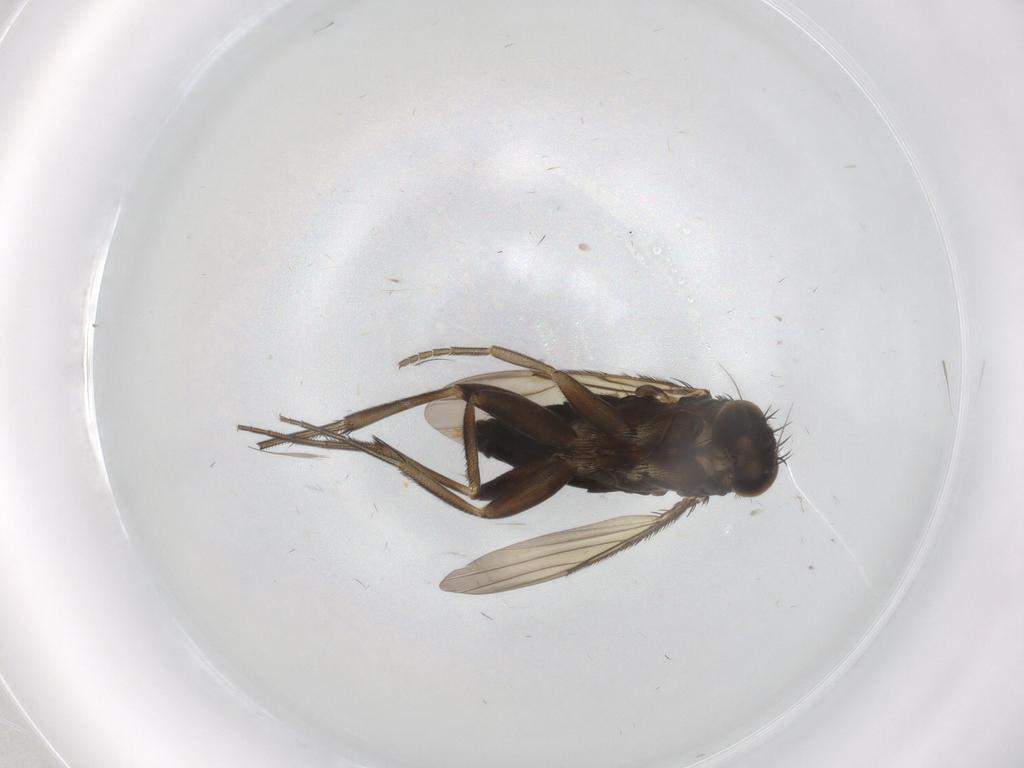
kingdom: Animalia
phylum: Arthropoda
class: Insecta
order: Diptera
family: Phoridae
